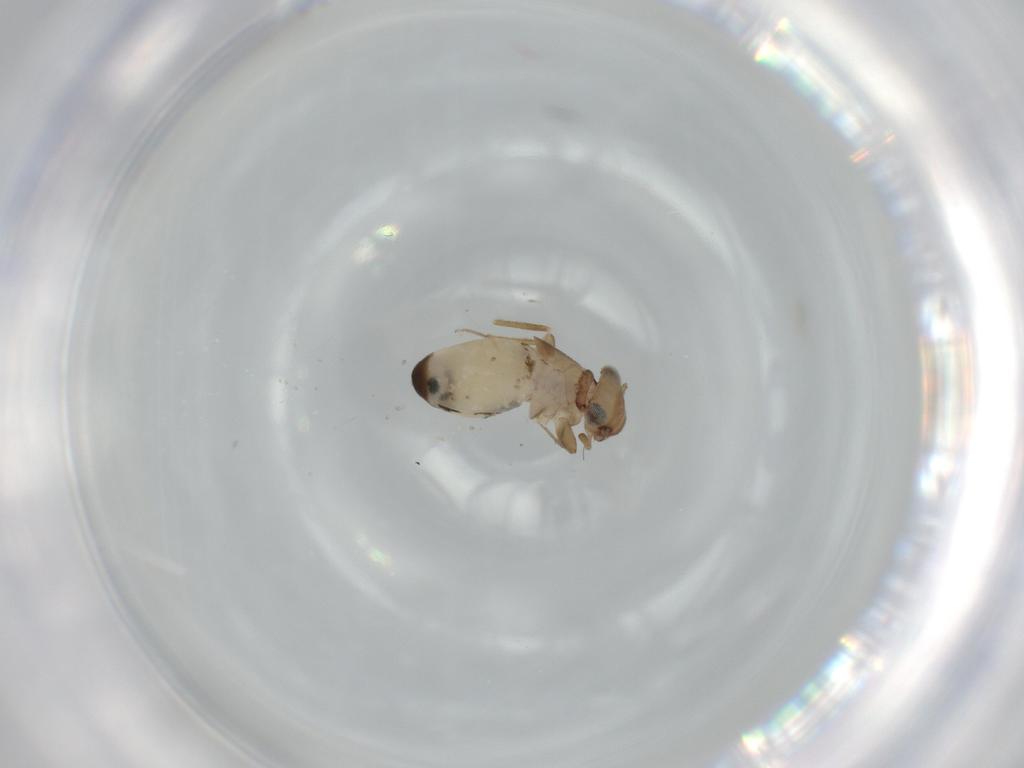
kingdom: Animalia
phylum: Arthropoda
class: Insecta
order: Psocodea
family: Lepidopsocidae
